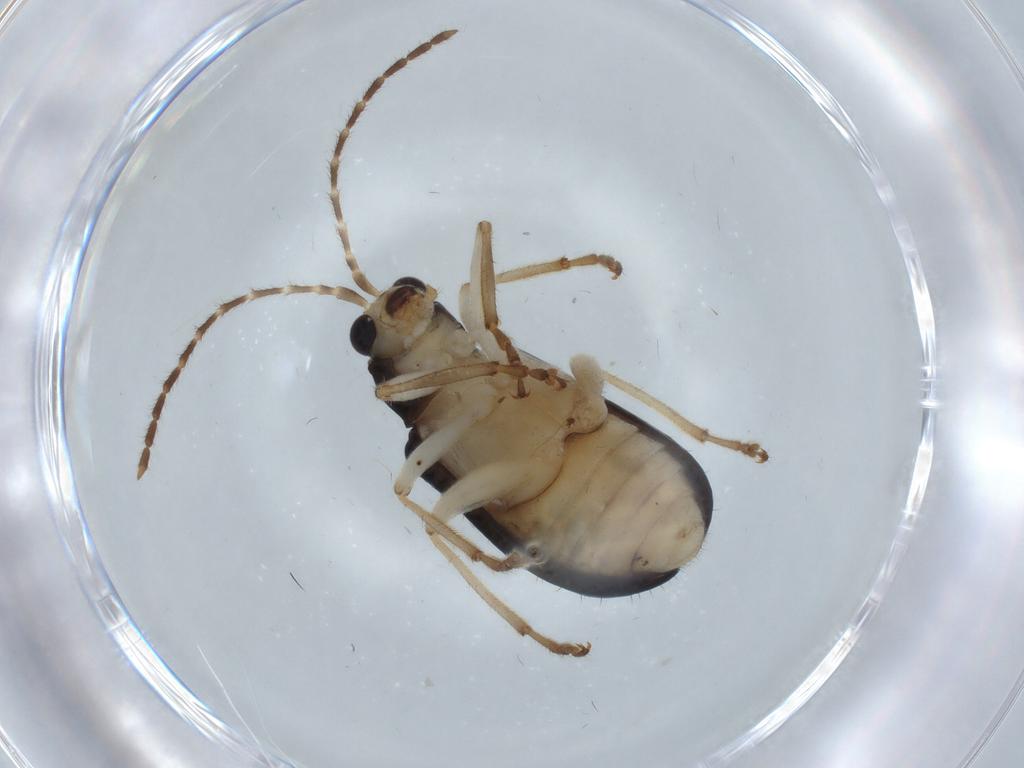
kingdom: Animalia
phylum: Arthropoda
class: Insecta
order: Coleoptera
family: Chrysomelidae
